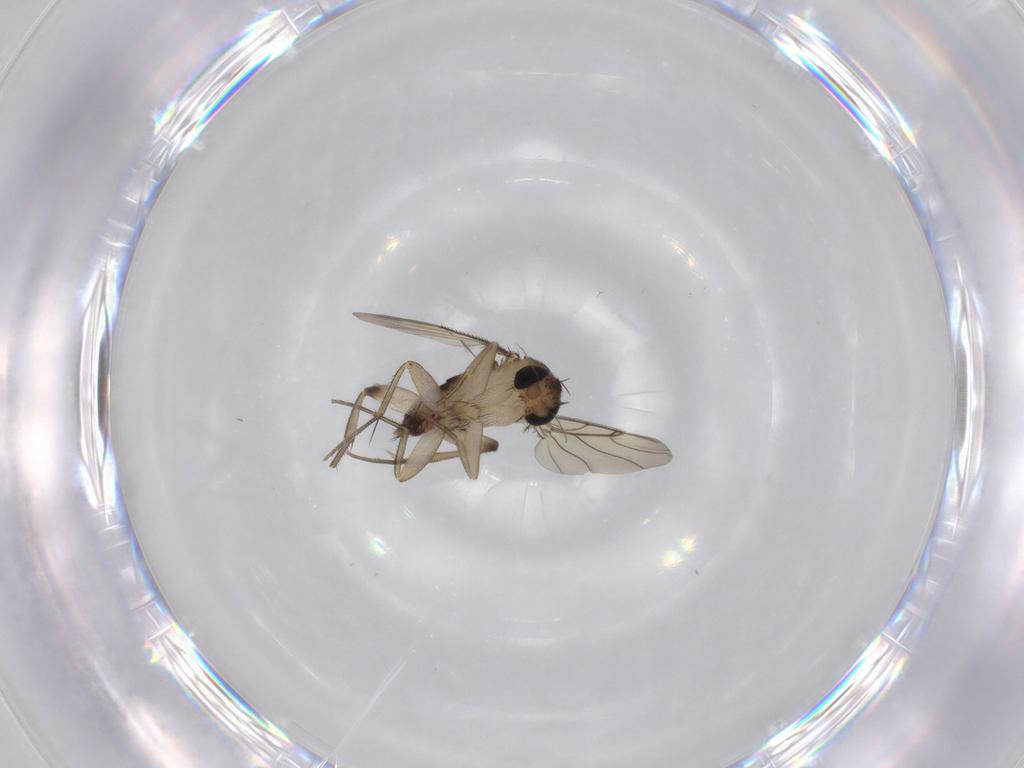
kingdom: Animalia
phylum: Arthropoda
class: Insecta
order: Diptera
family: Phoridae
